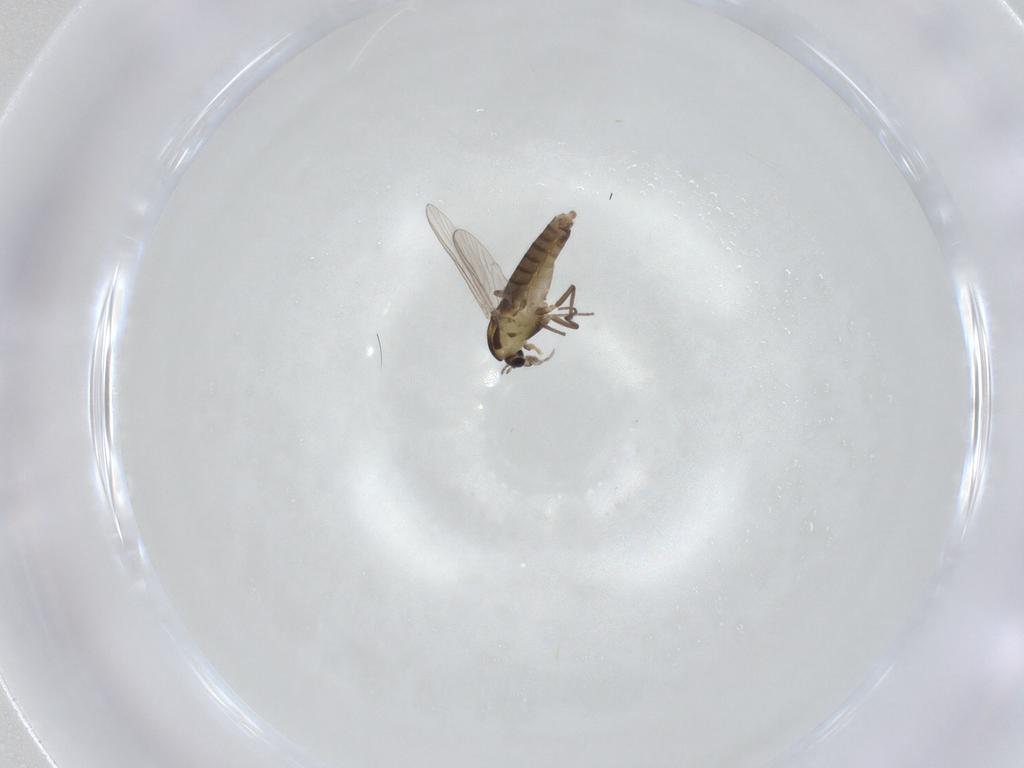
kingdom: Animalia
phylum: Arthropoda
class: Insecta
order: Diptera
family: Chironomidae
